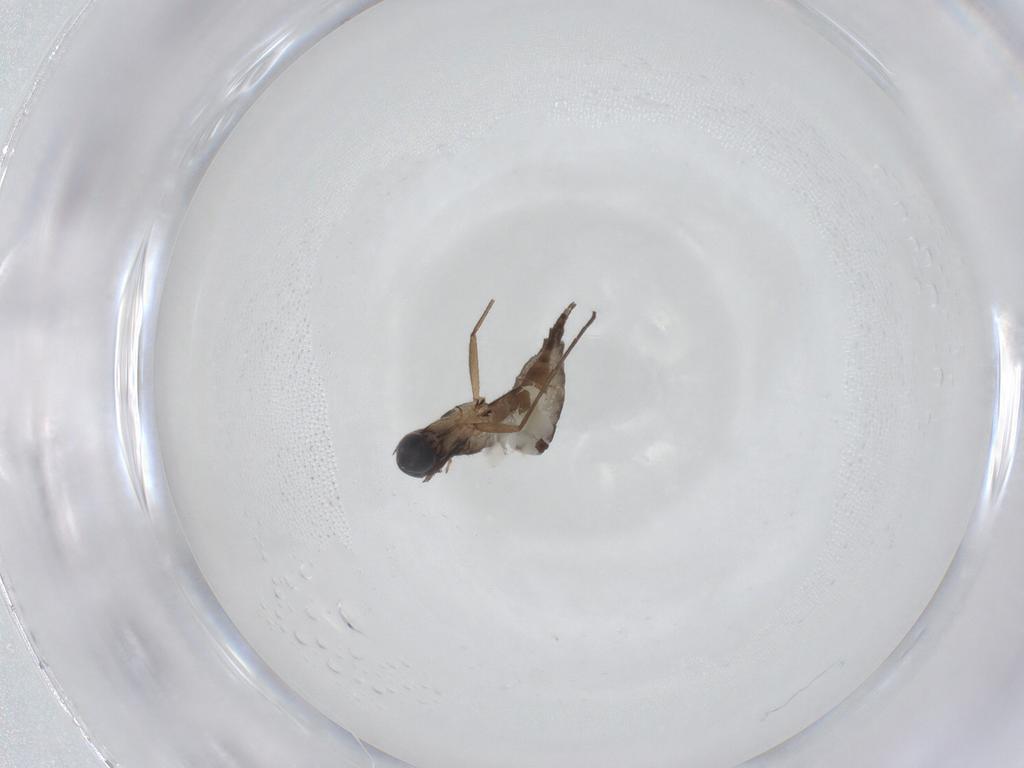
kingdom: Animalia
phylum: Arthropoda
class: Insecta
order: Diptera
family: Sciaridae
